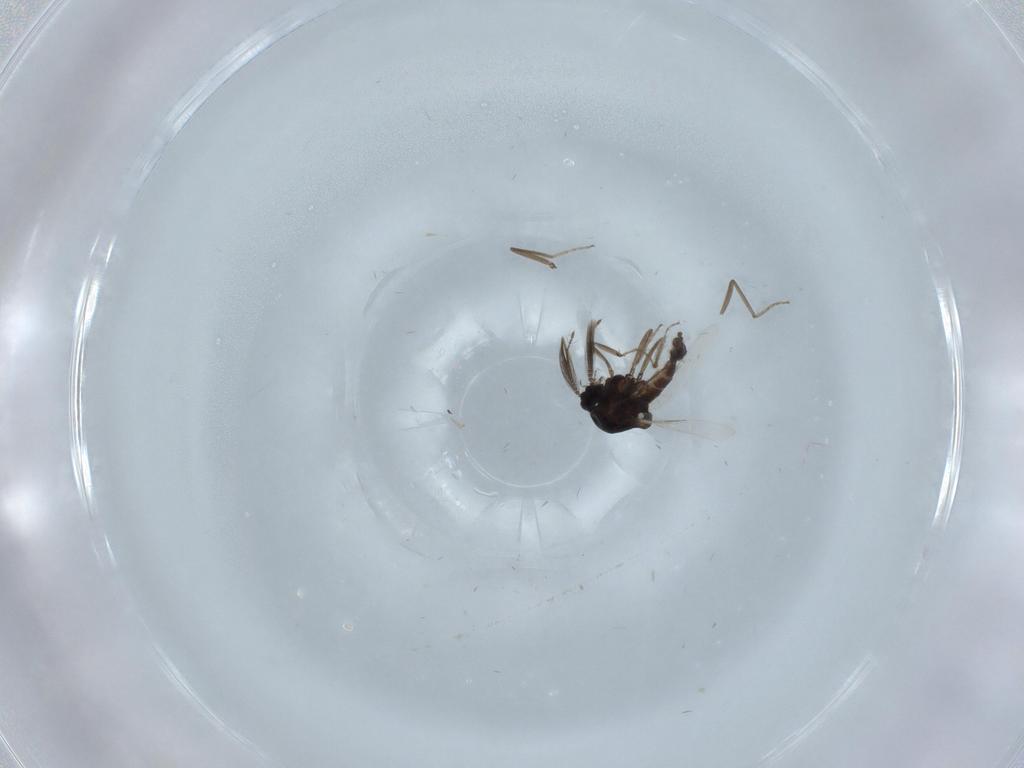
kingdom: Animalia
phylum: Arthropoda
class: Insecta
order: Diptera
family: Ceratopogonidae
